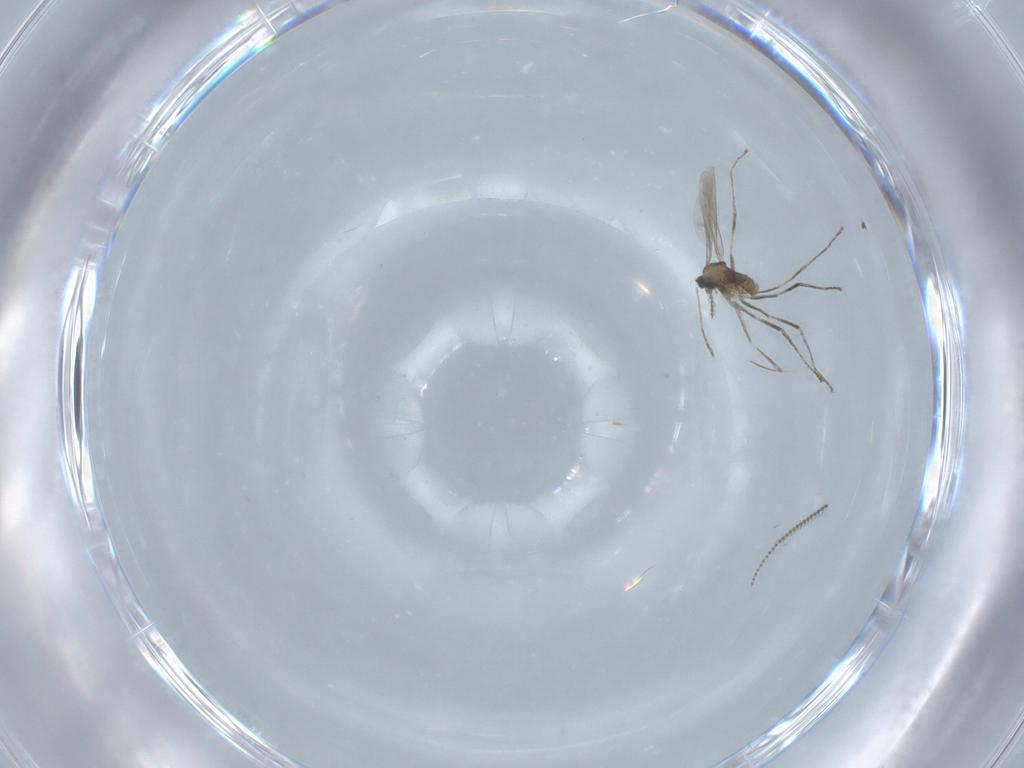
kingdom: Animalia
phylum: Arthropoda
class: Insecta
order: Diptera
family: Cecidomyiidae
